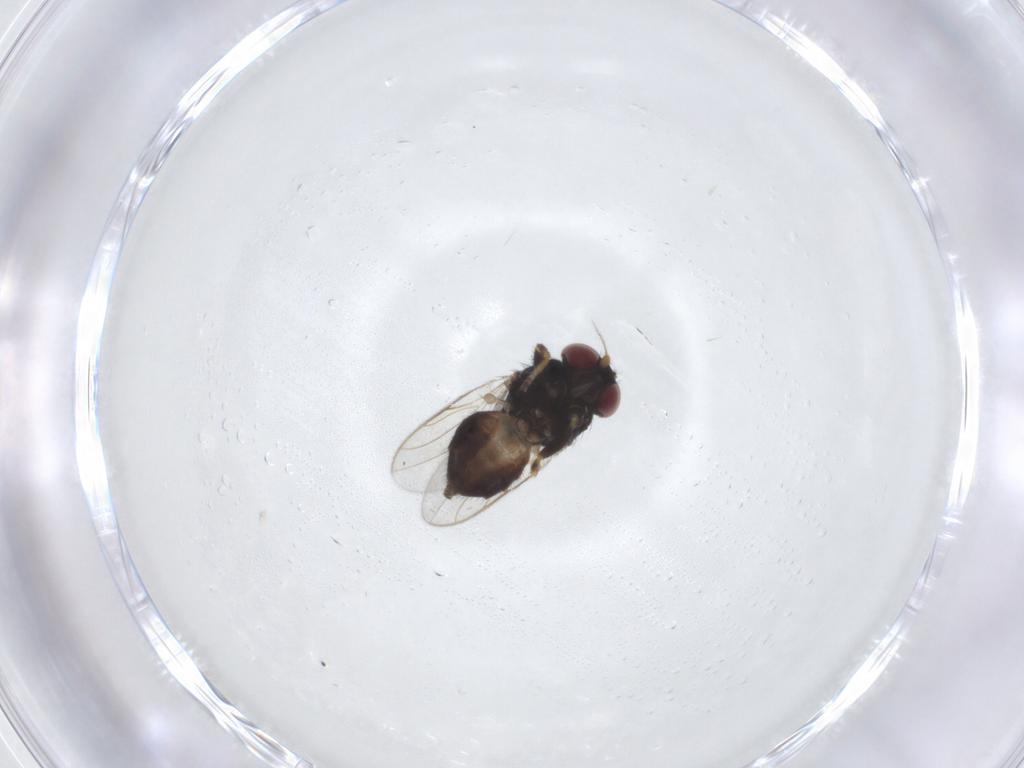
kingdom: Animalia
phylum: Arthropoda
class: Insecta
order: Diptera
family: Chloropidae
